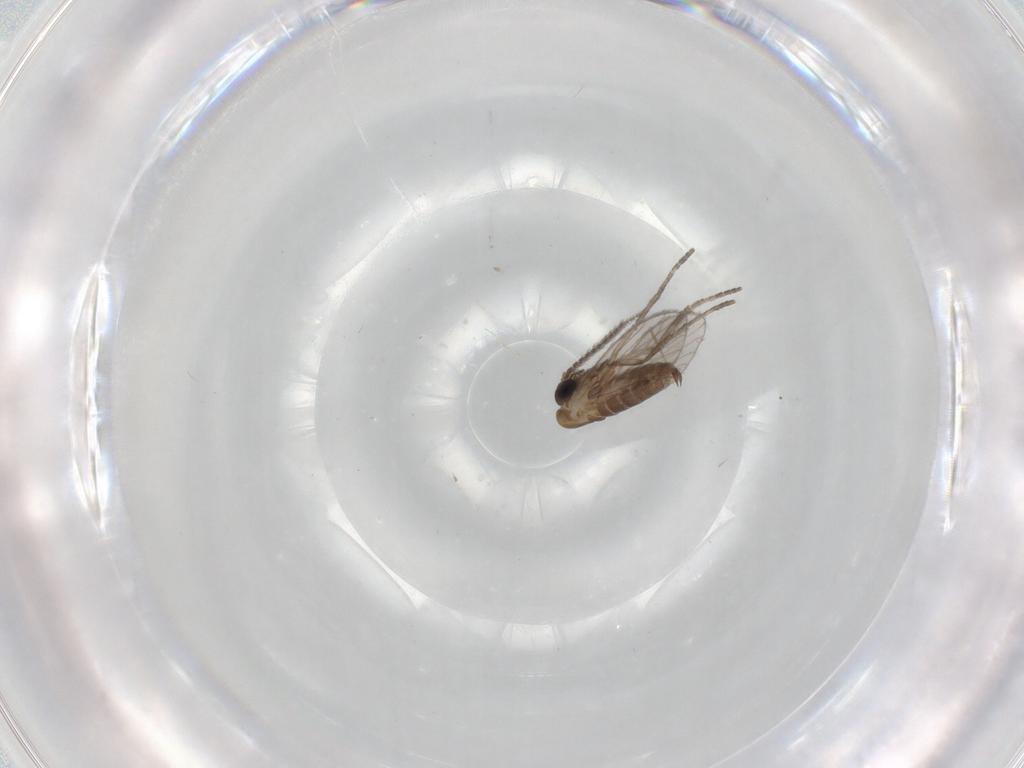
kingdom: Animalia
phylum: Arthropoda
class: Insecta
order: Diptera
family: Psychodidae
